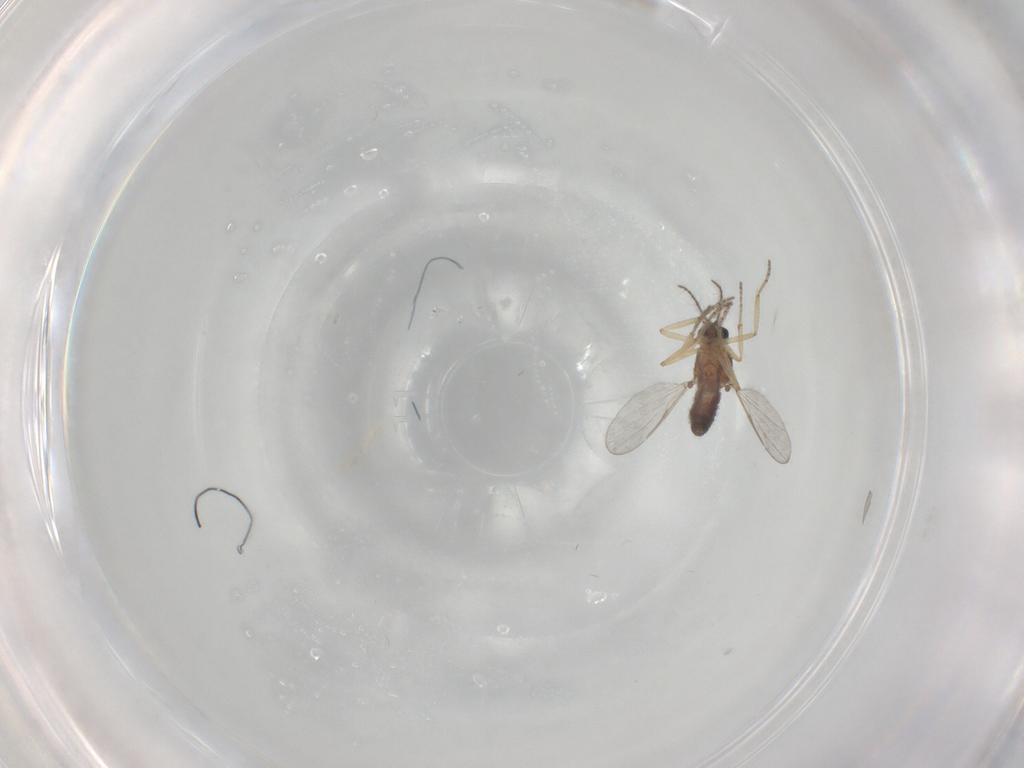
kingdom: Animalia
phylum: Arthropoda
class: Insecta
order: Diptera
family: Ceratopogonidae
